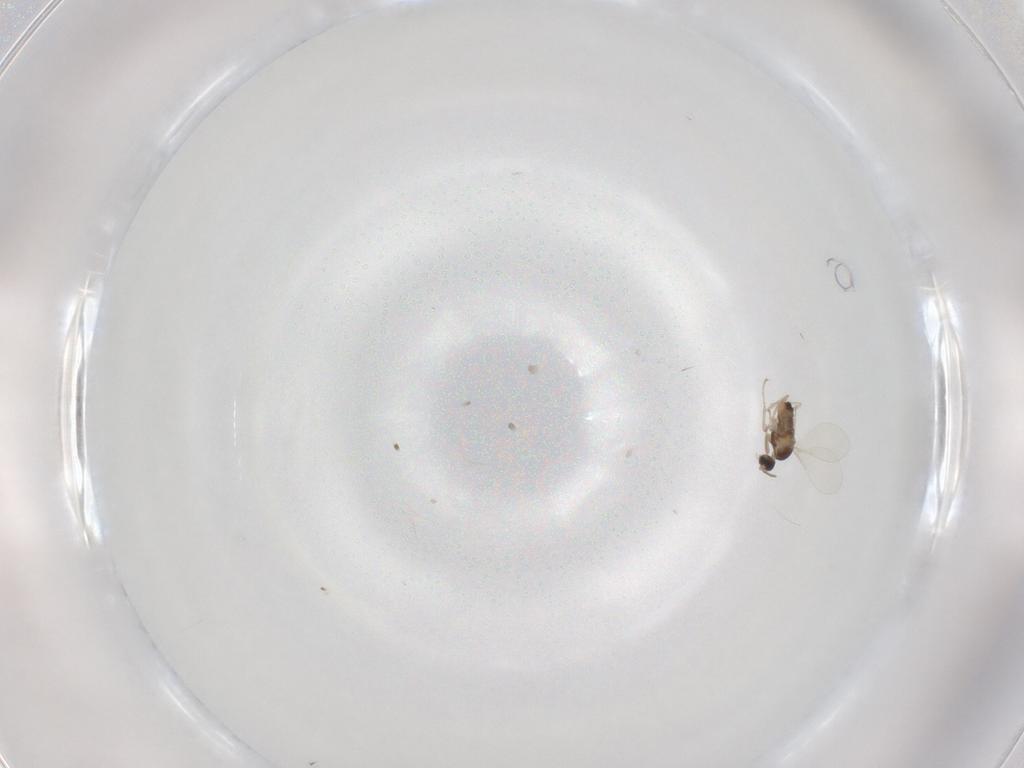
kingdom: Animalia
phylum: Arthropoda
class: Insecta
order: Diptera
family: Cecidomyiidae
